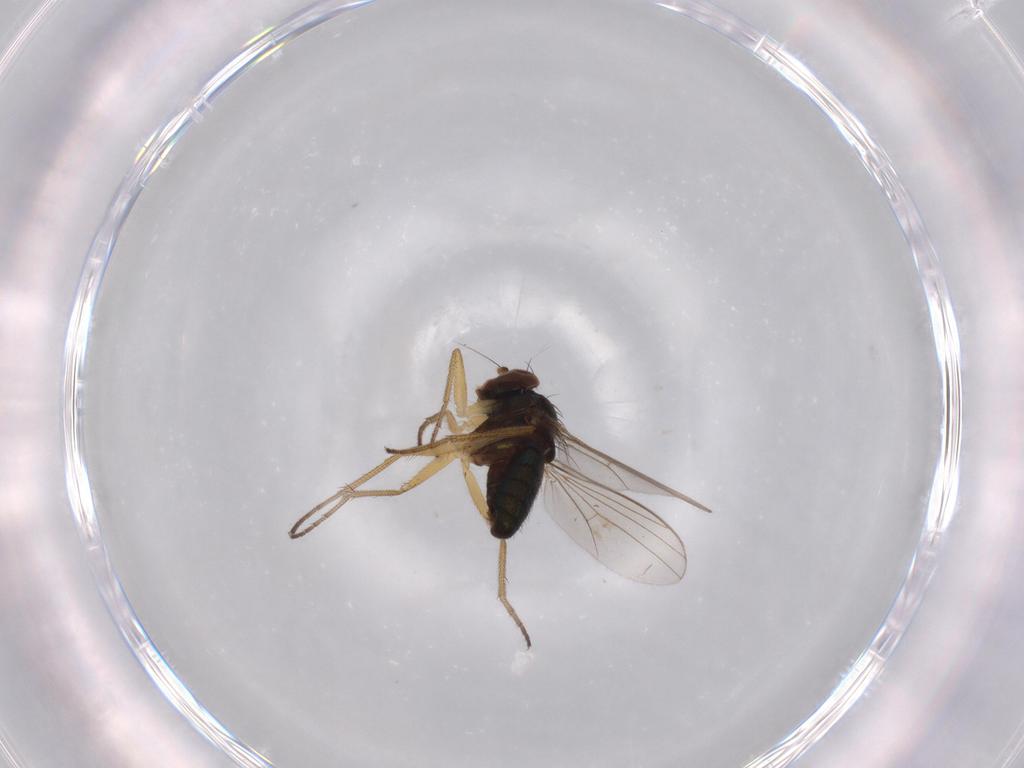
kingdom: Animalia
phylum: Arthropoda
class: Insecta
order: Diptera
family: Dolichopodidae
